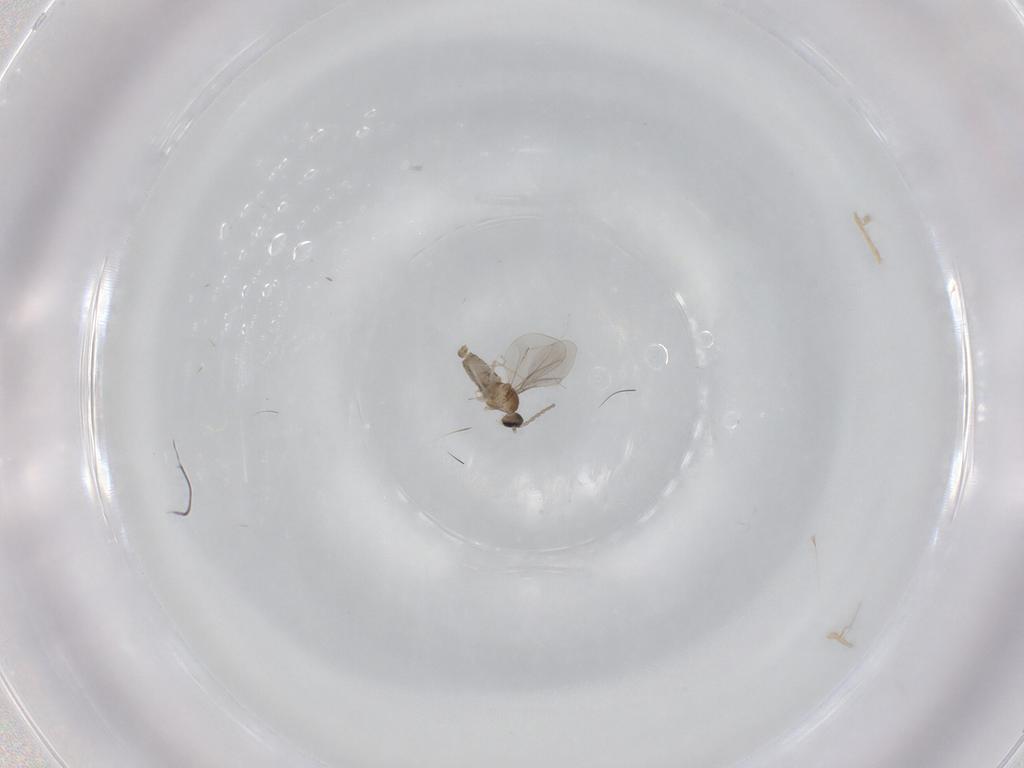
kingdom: Animalia
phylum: Arthropoda
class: Insecta
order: Diptera
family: Cecidomyiidae
